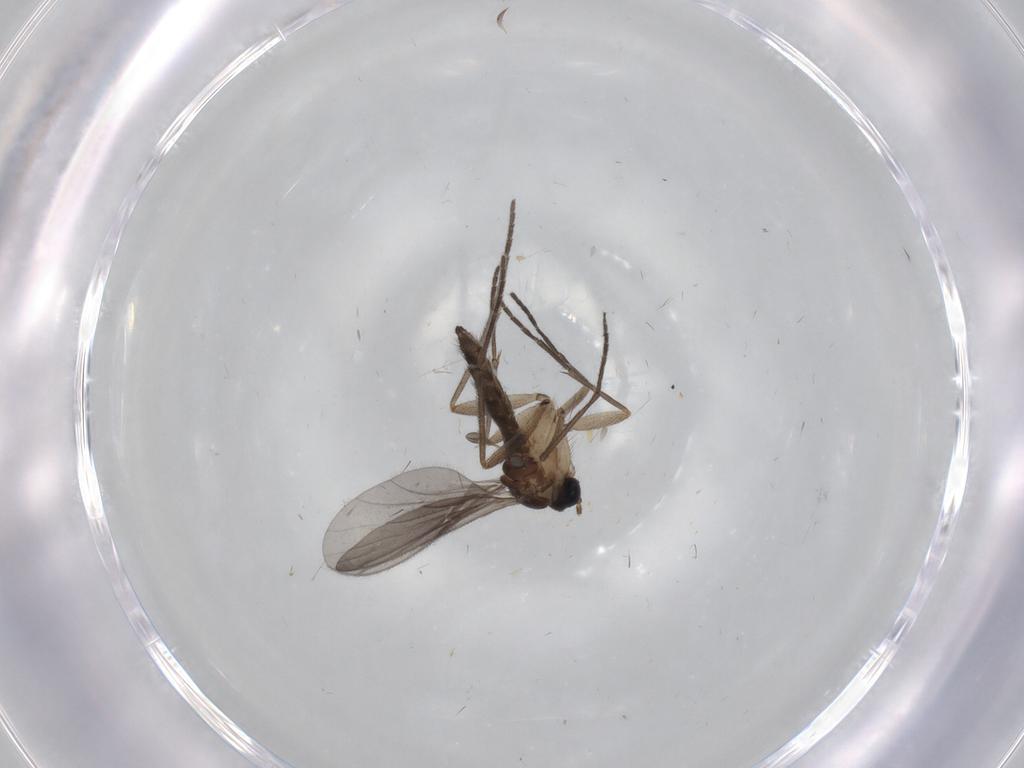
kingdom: Animalia
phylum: Arthropoda
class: Insecta
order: Diptera
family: Sciaridae
